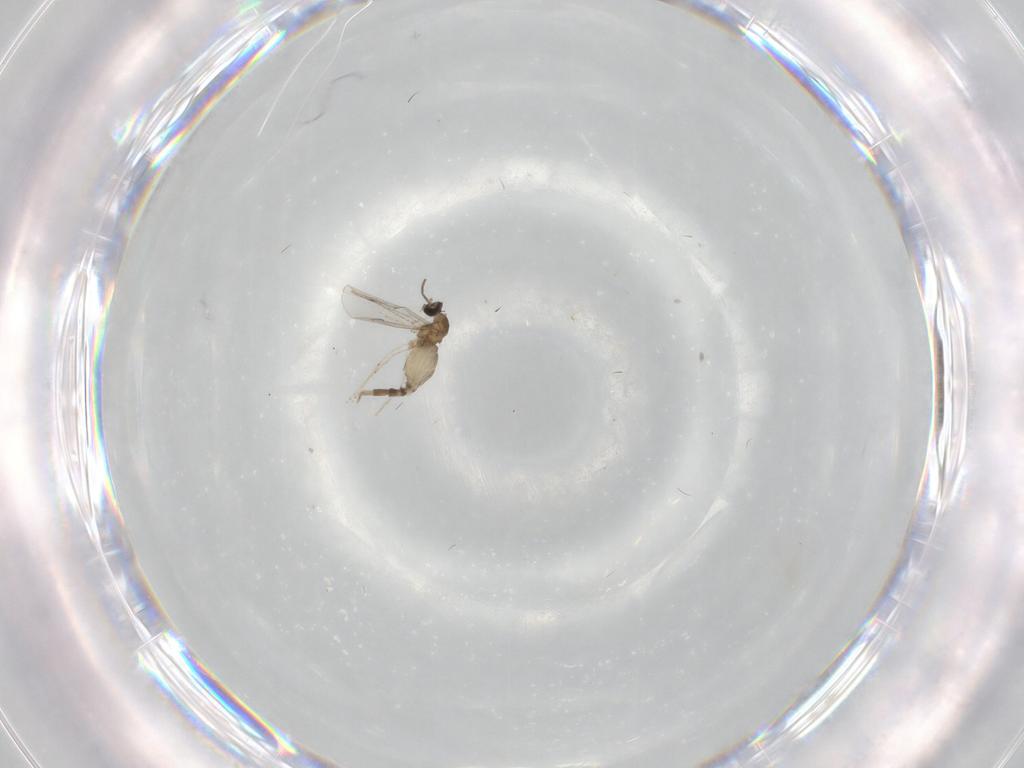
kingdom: Animalia
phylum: Arthropoda
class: Insecta
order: Diptera
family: Cecidomyiidae
